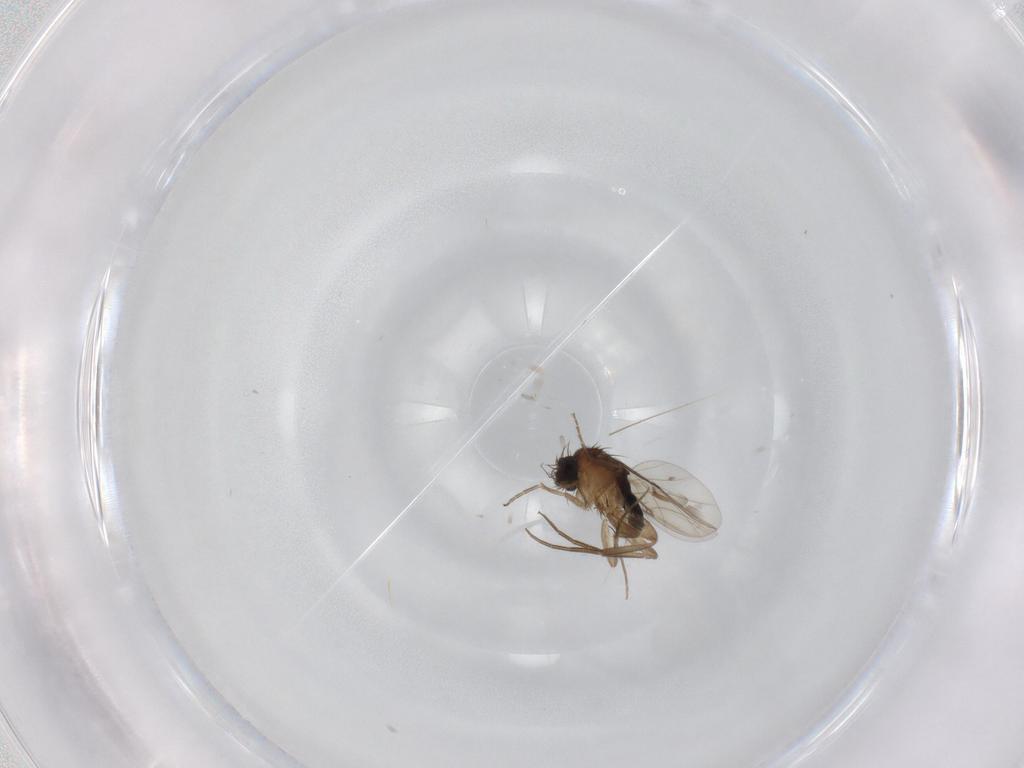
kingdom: Animalia
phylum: Arthropoda
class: Insecta
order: Diptera
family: Phoridae
